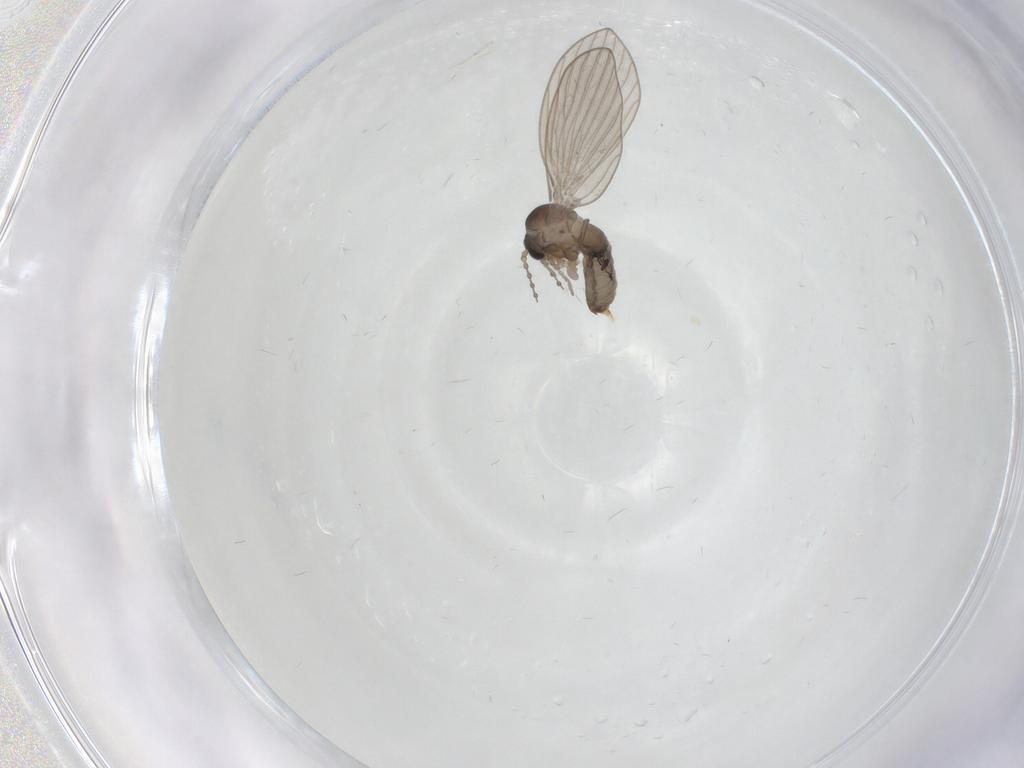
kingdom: Animalia
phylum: Arthropoda
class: Insecta
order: Diptera
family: Psychodidae
